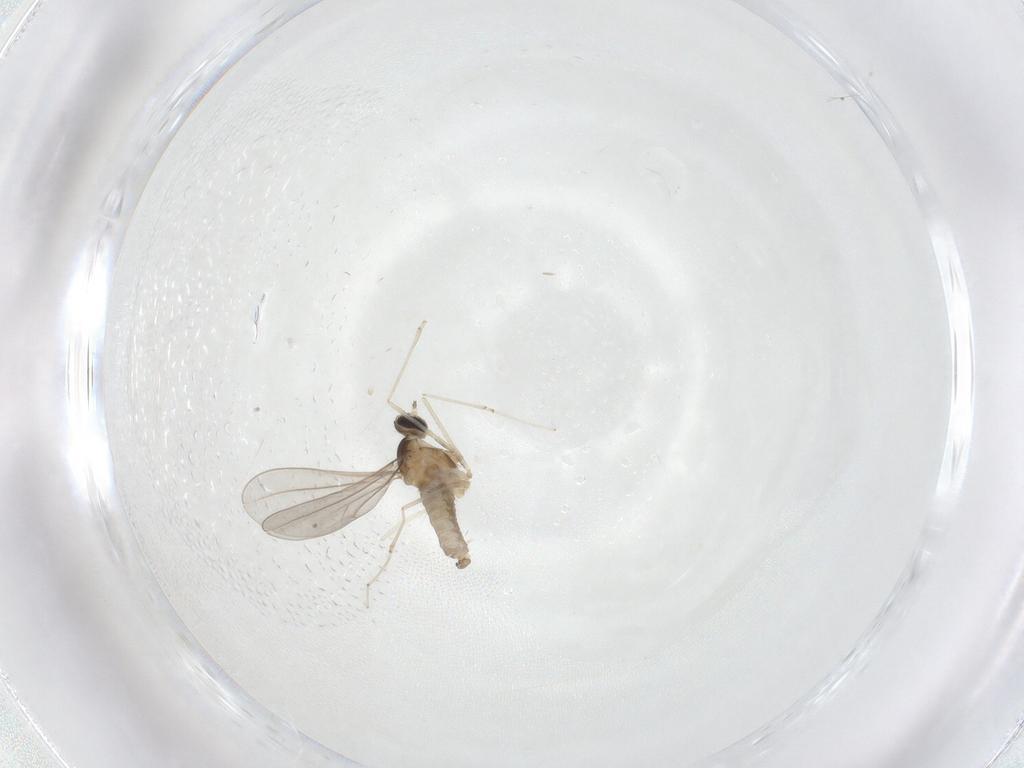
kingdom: Animalia
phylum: Arthropoda
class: Insecta
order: Diptera
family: Cecidomyiidae
